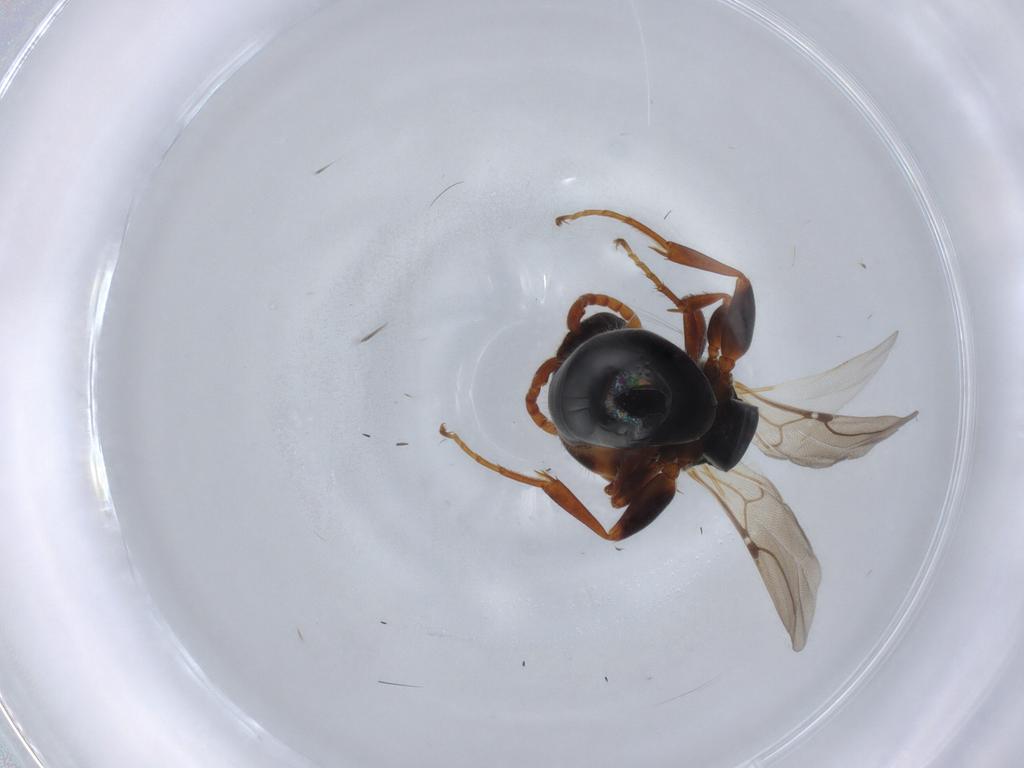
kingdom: Animalia
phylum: Arthropoda
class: Insecta
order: Hymenoptera
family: Bethylidae
